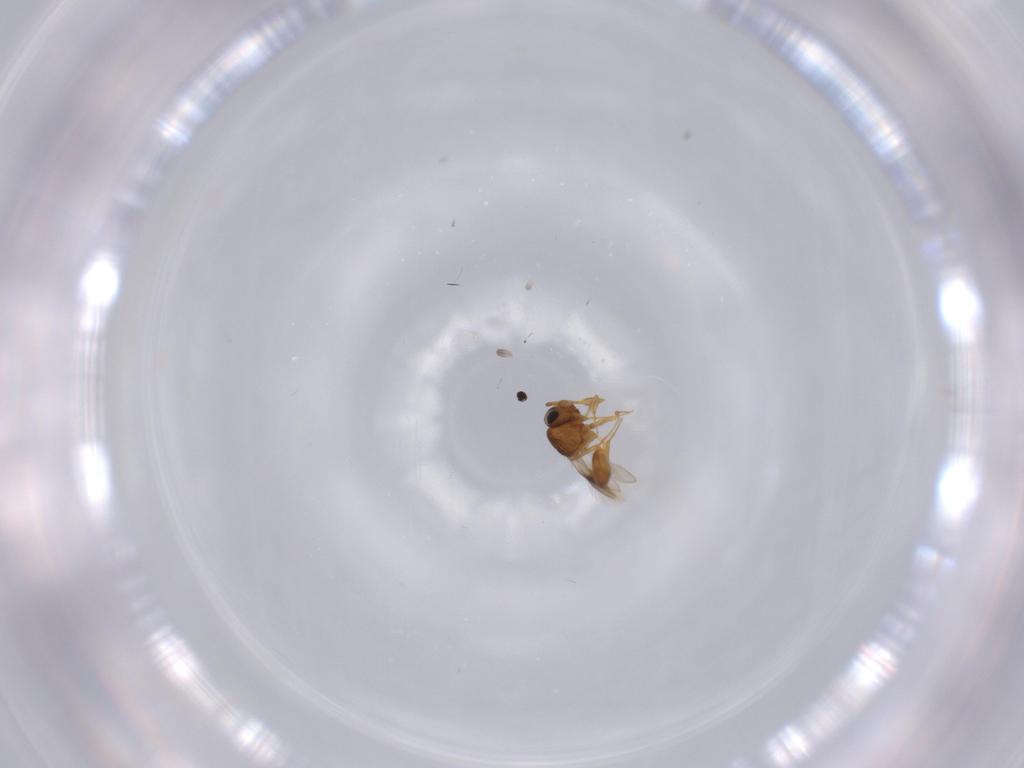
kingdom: Animalia
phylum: Arthropoda
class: Insecta
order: Hymenoptera
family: Scelionidae
